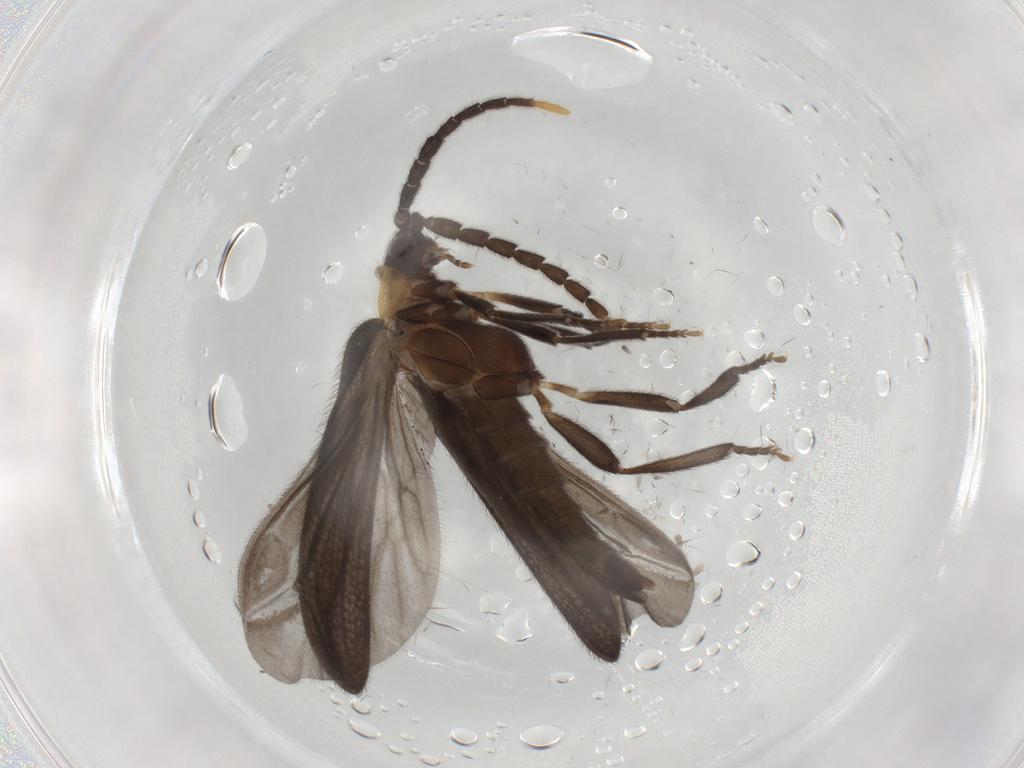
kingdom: Animalia
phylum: Arthropoda
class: Insecta
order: Coleoptera
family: Lycidae
